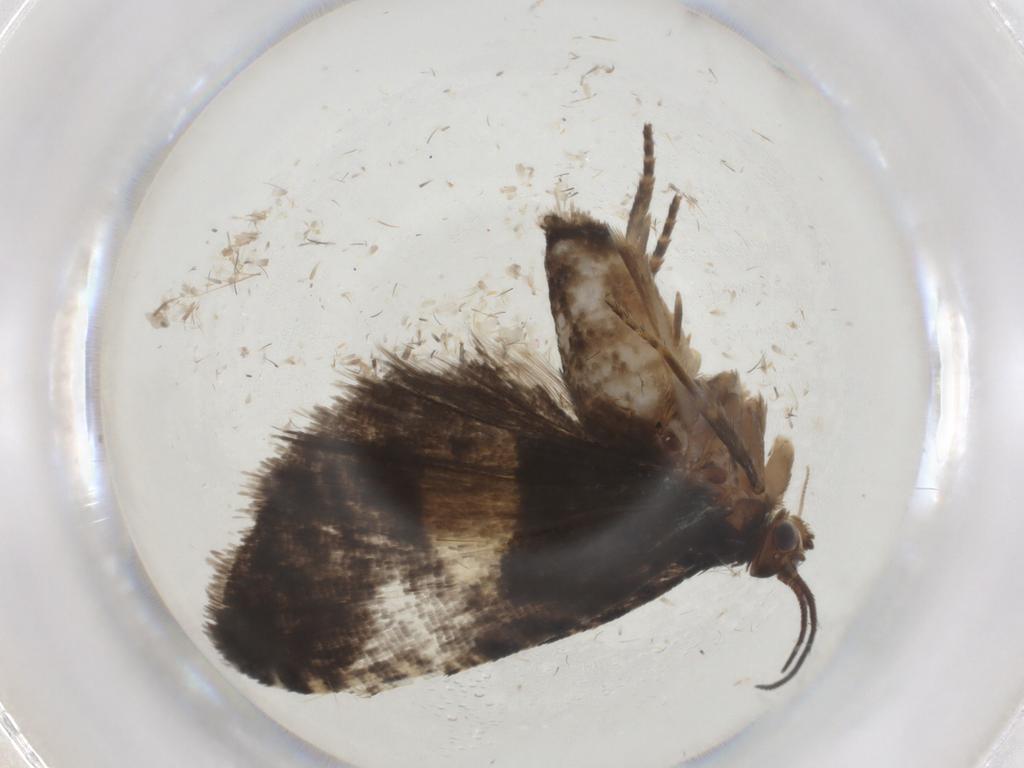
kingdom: Animalia
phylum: Arthropoda
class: Insecta
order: Lepidoptera
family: Tortricidae
